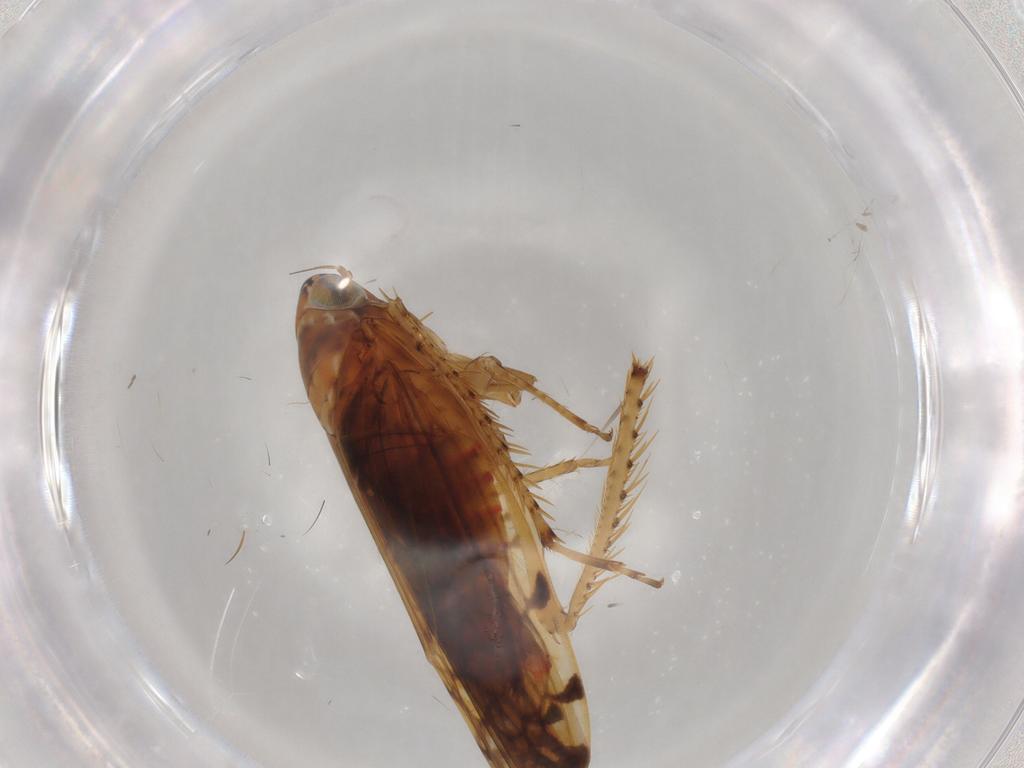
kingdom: Animalia
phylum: Arthropoda
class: Insecta
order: Hemiptera
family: Cicadellidae
